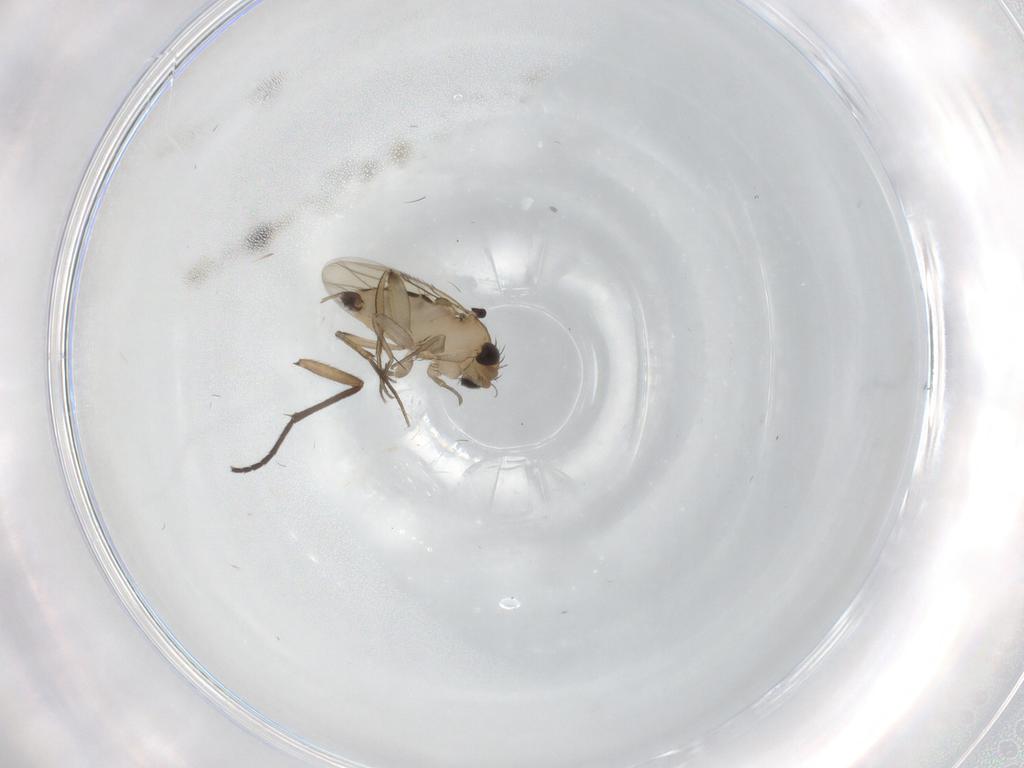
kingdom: Animalia
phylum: Arthropoda
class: Insecta
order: Diptera
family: Phoridae
